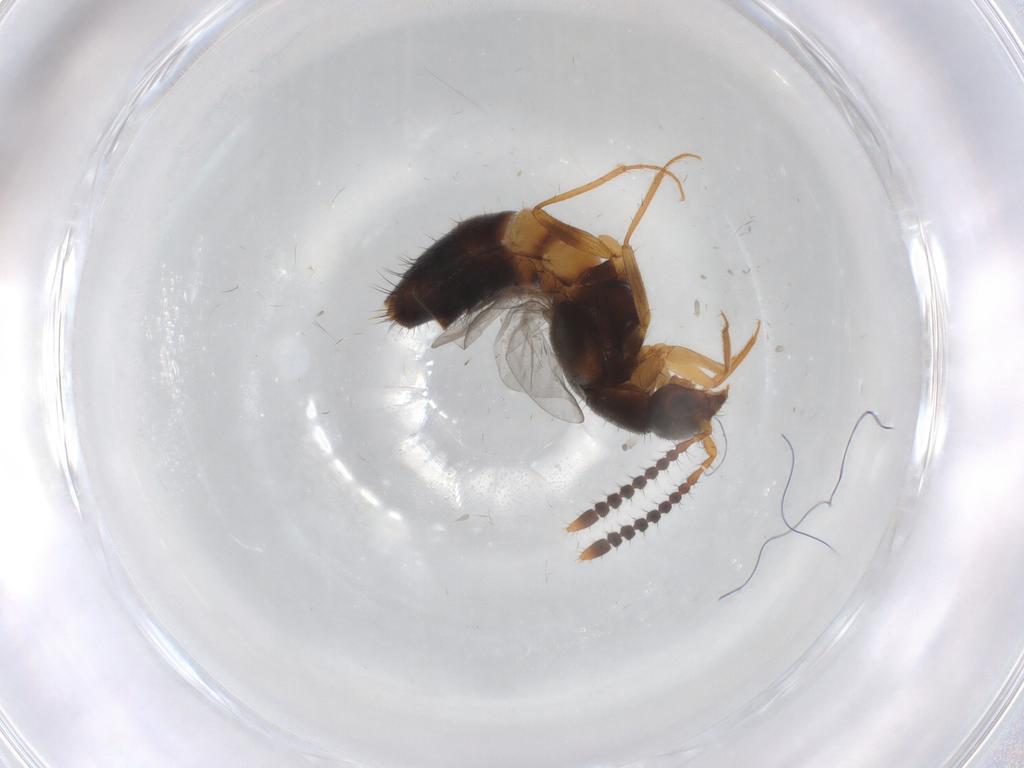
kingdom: Animalia
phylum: Arthropoda
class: Insecta
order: Coleoptera
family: Staphylinidae
